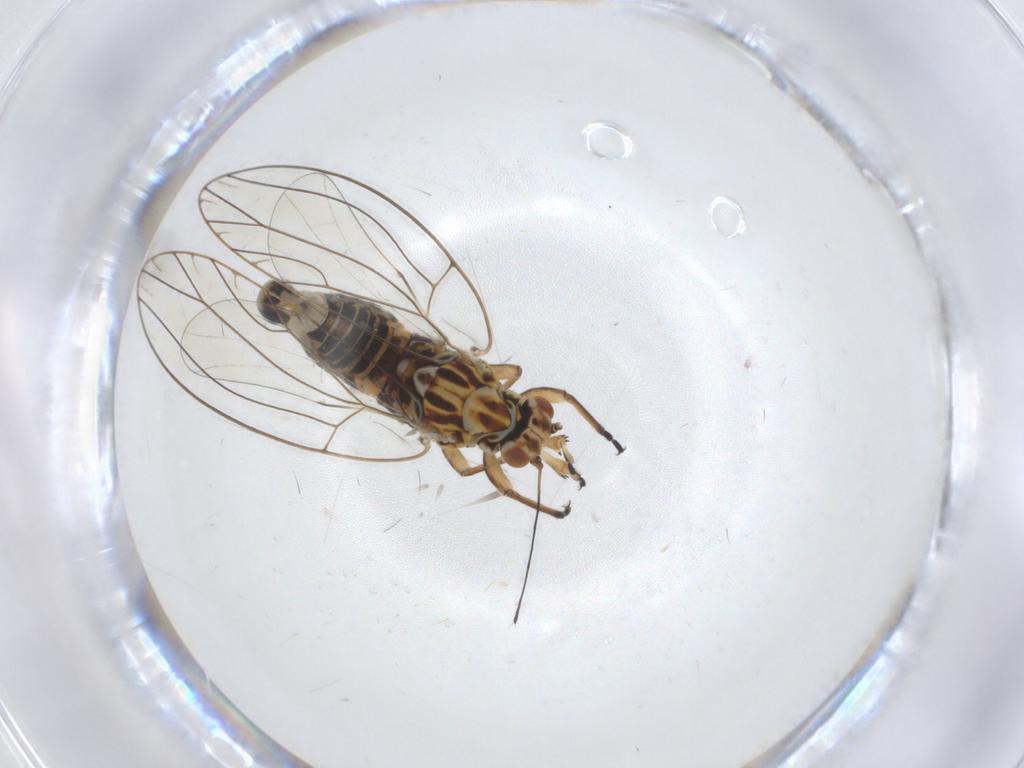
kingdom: Animalia
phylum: Arthropoda
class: Insecta
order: Hemiptera
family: Triozidae
